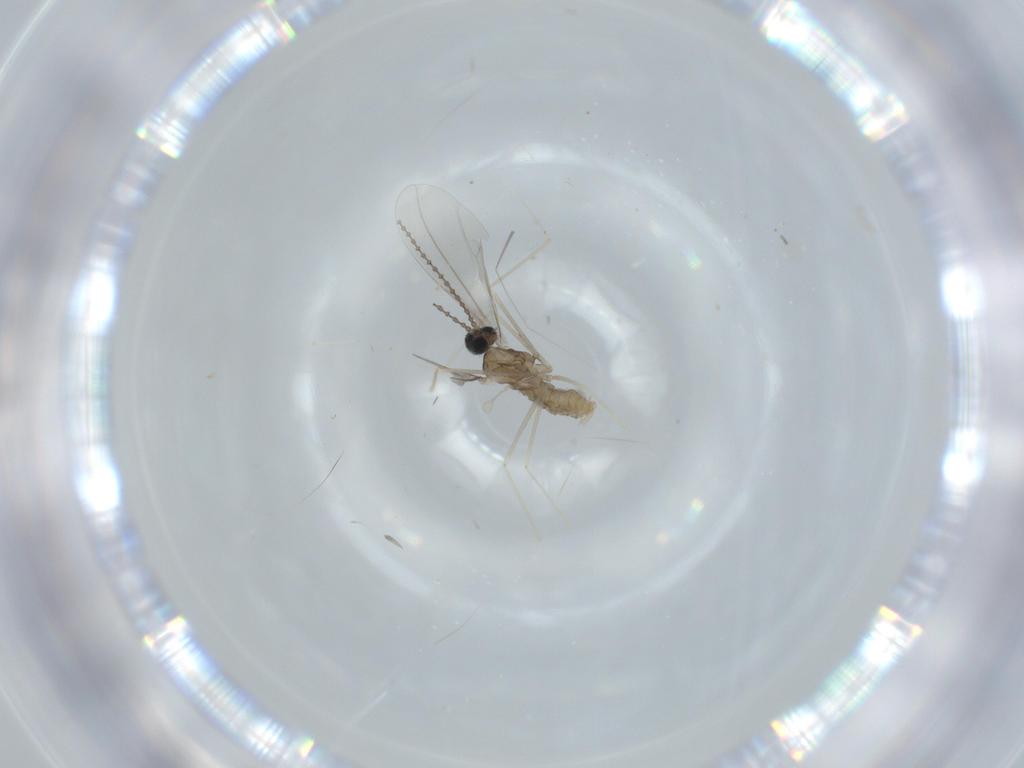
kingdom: Animalia
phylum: Arthropoda
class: Insecta
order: Diptera
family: Cecidomyiidae
